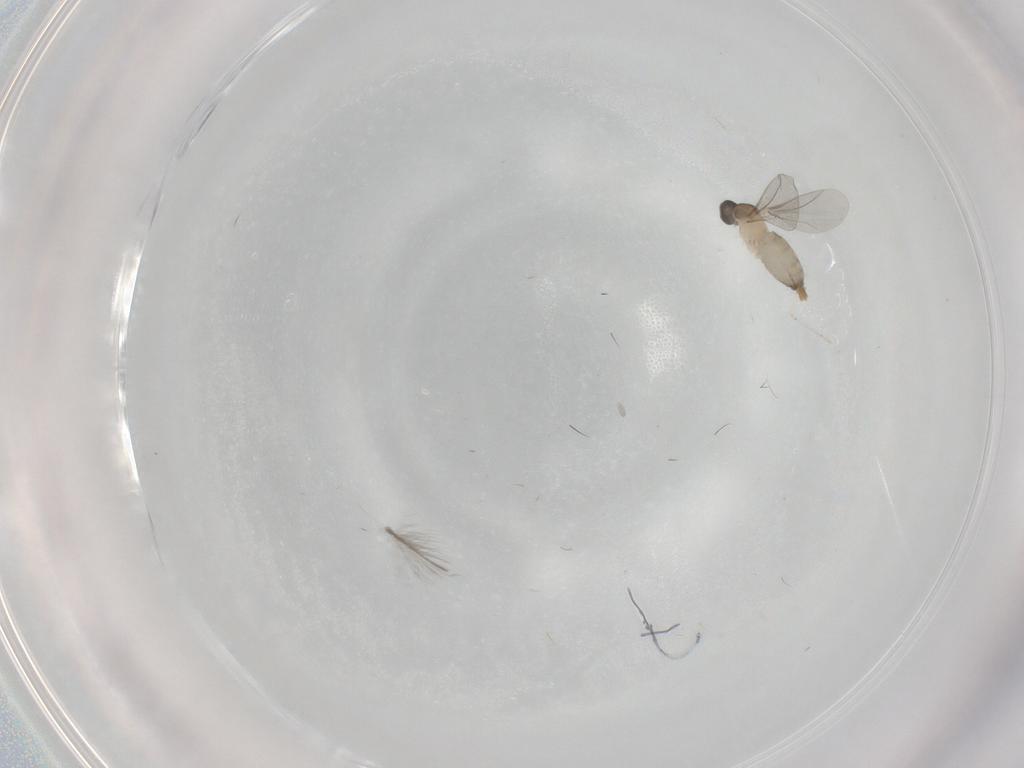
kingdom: Animalia
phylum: Arthropoda
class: Insecta
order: Diptera
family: Cecidomyiidae
